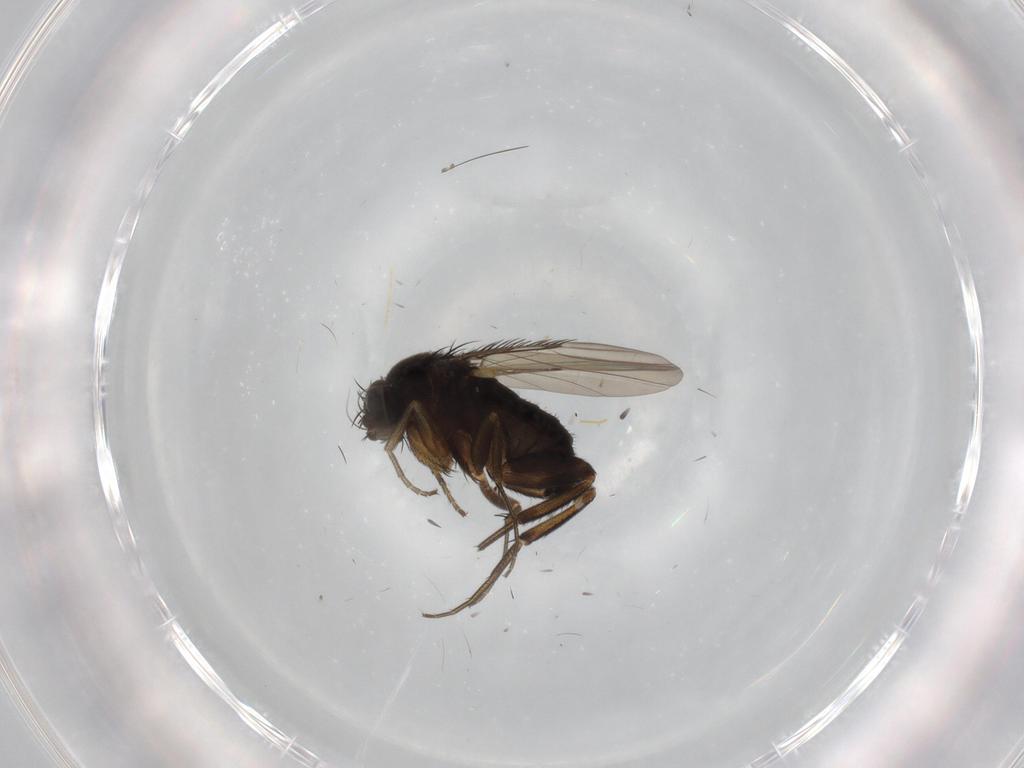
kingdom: Animalia
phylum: Arthropoda
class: Insecta
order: Diptera
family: Phoridae
